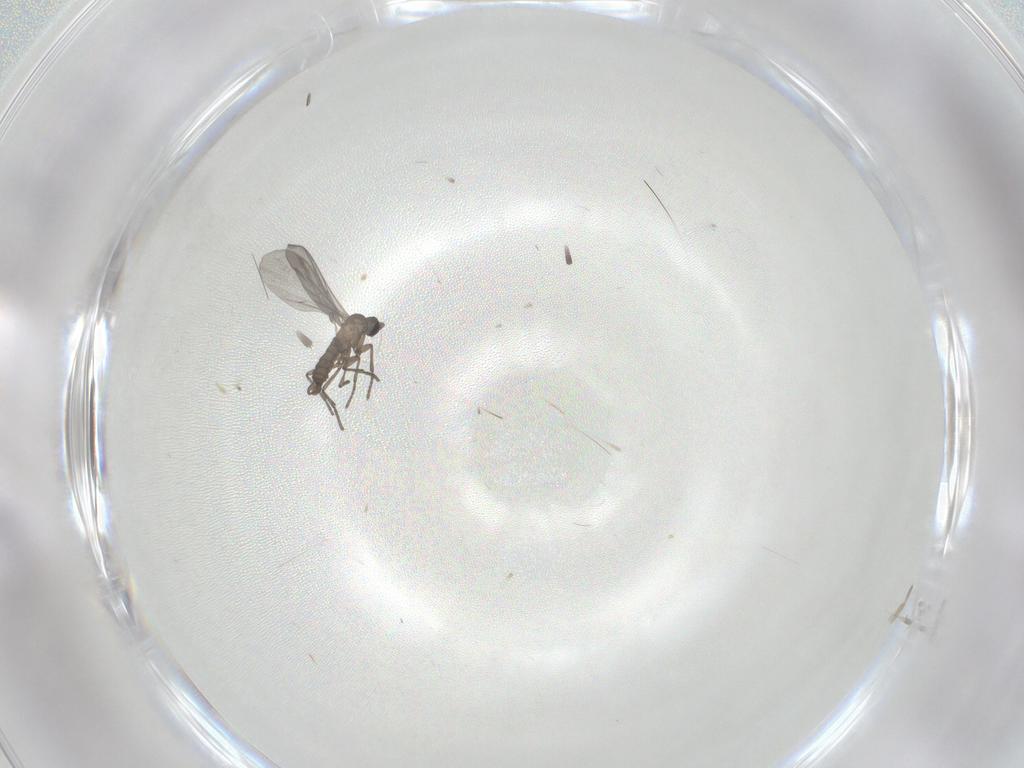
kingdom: Animalia
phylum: Arthropoda
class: Insecta
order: Diptera
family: Sciaridae
